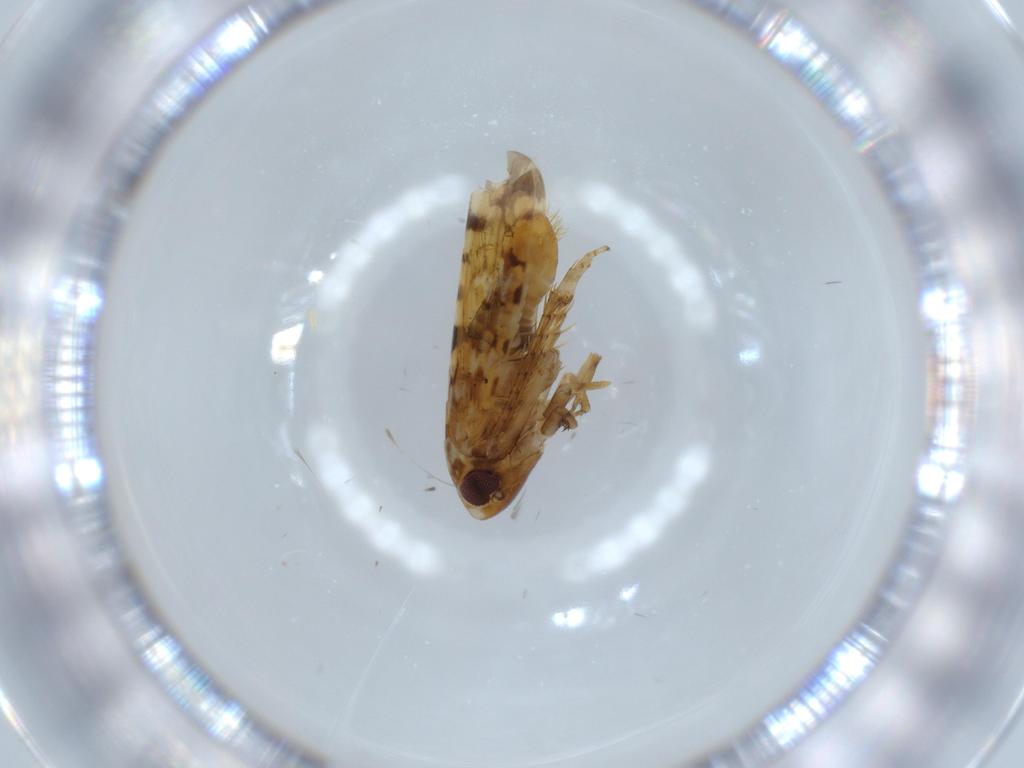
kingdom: Animalia
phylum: Arthropoda
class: Insecta
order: Hemiptera
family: Cicadellidae
